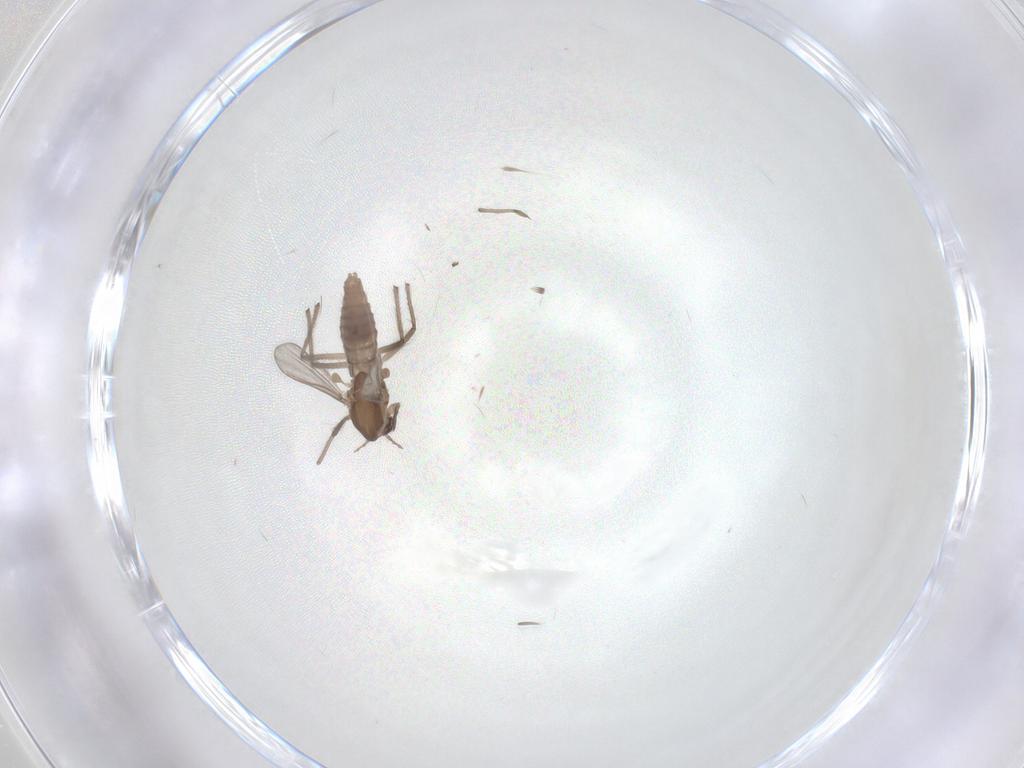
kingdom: Animalia
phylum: Arthropoda
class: Insecta
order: Diptera
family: Chironomidae
